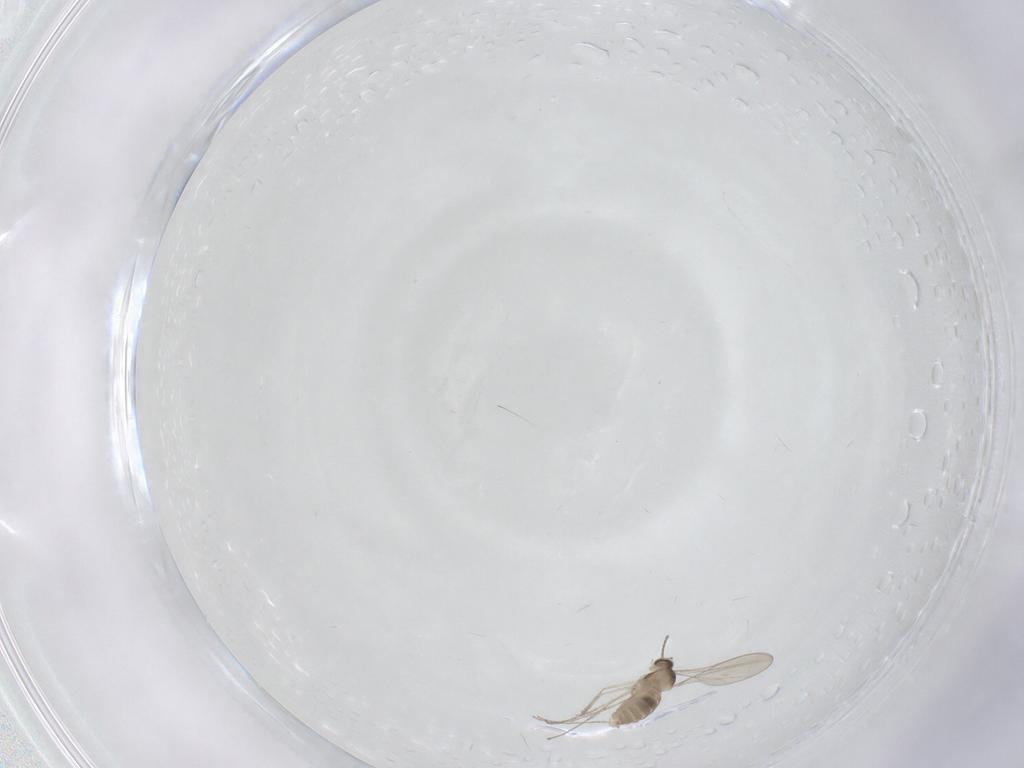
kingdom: Animalia
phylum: Arthropoda
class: Insecta
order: Diptera
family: Cecidomyiidae
